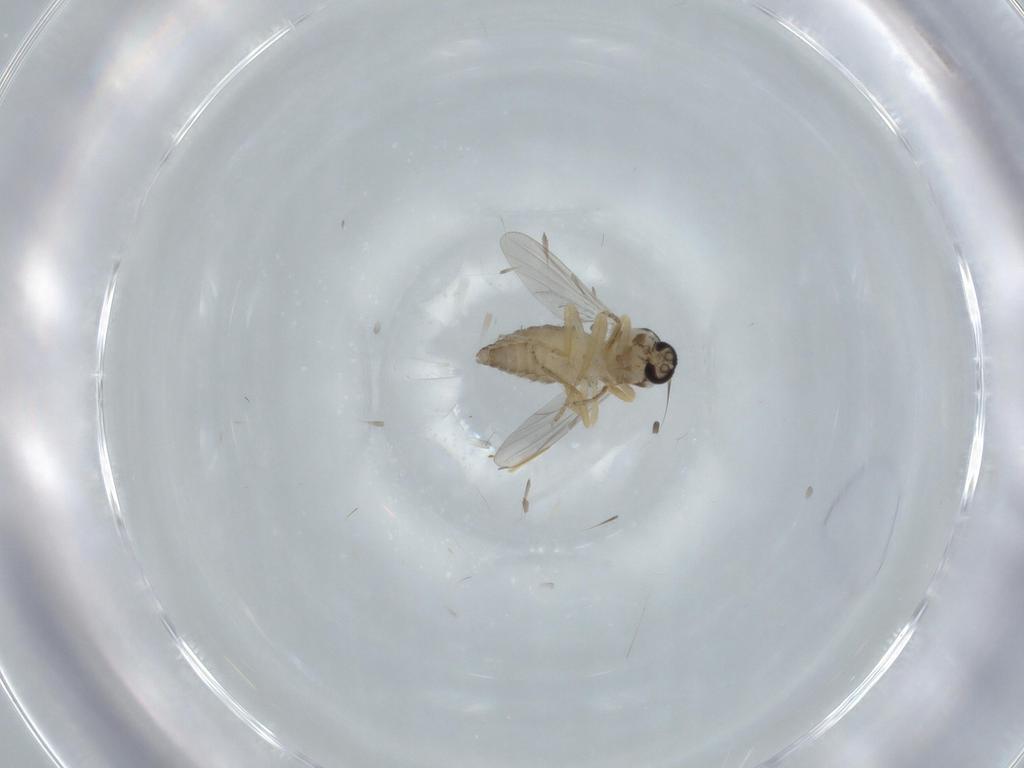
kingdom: Animalia
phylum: Arthropoda
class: Insecta
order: Diptera
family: Ceratopogonidae
